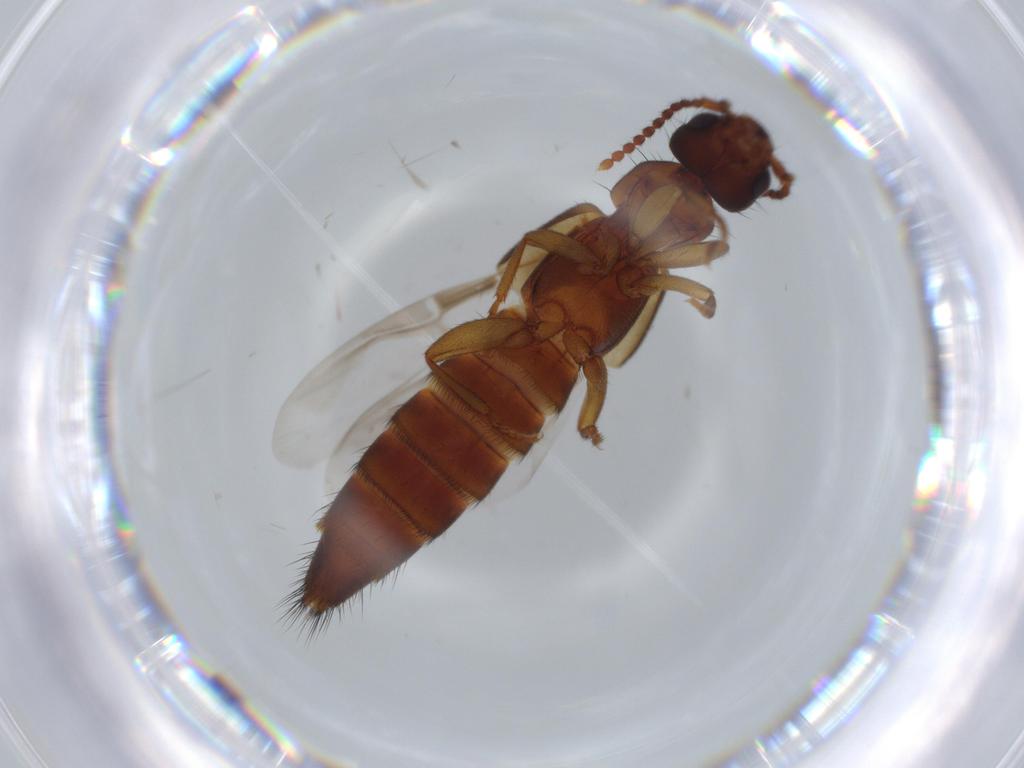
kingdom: Animalia
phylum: Arthropoda
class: Insecta
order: Coleoptera
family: Staphylinidae
